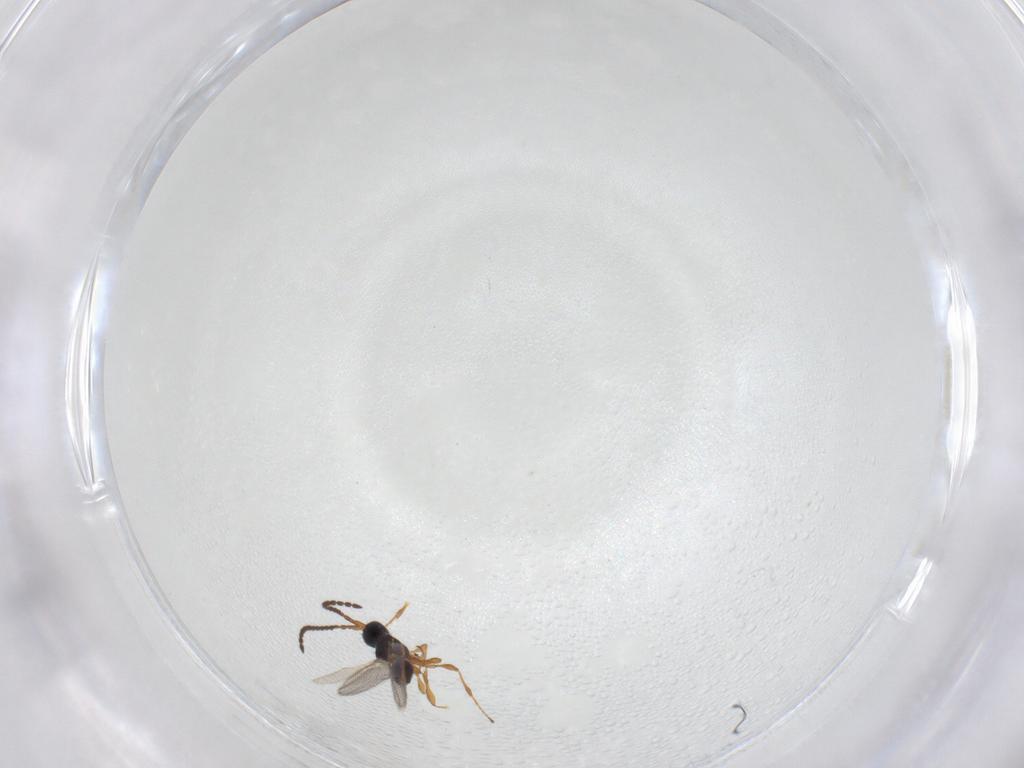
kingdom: Animalia
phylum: Arthropoda
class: Insecta
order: Hymenoptera
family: Diapriidae
